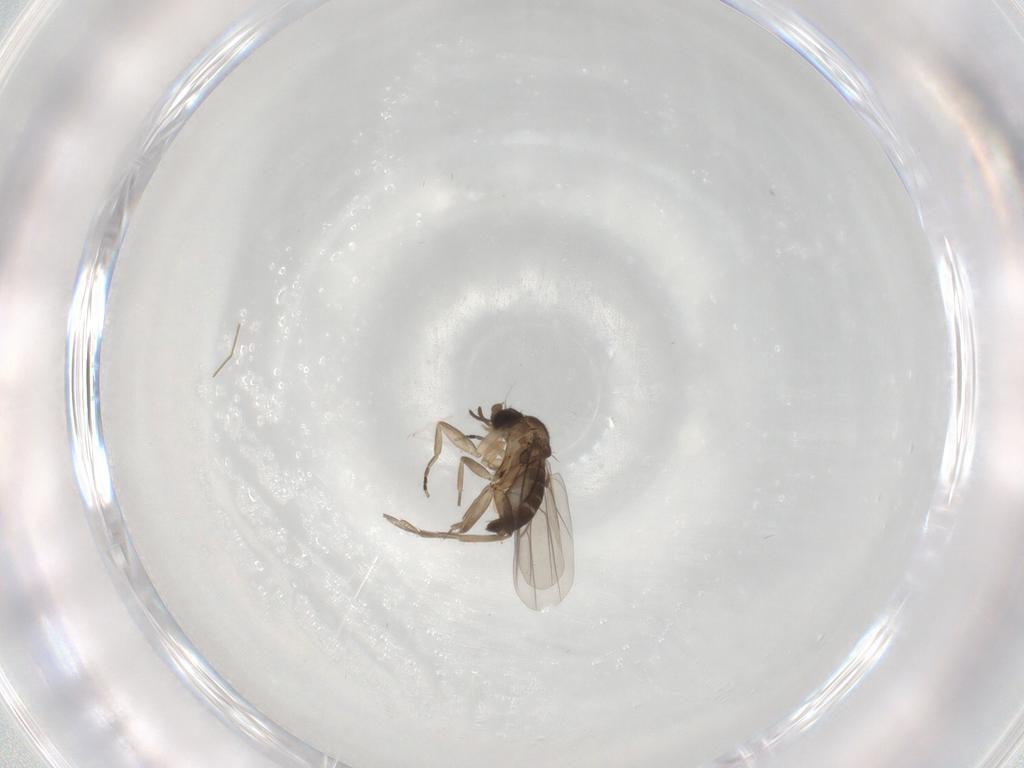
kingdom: Animalia
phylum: Arthropoda
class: Insecta
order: Diptera
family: Phoridae
